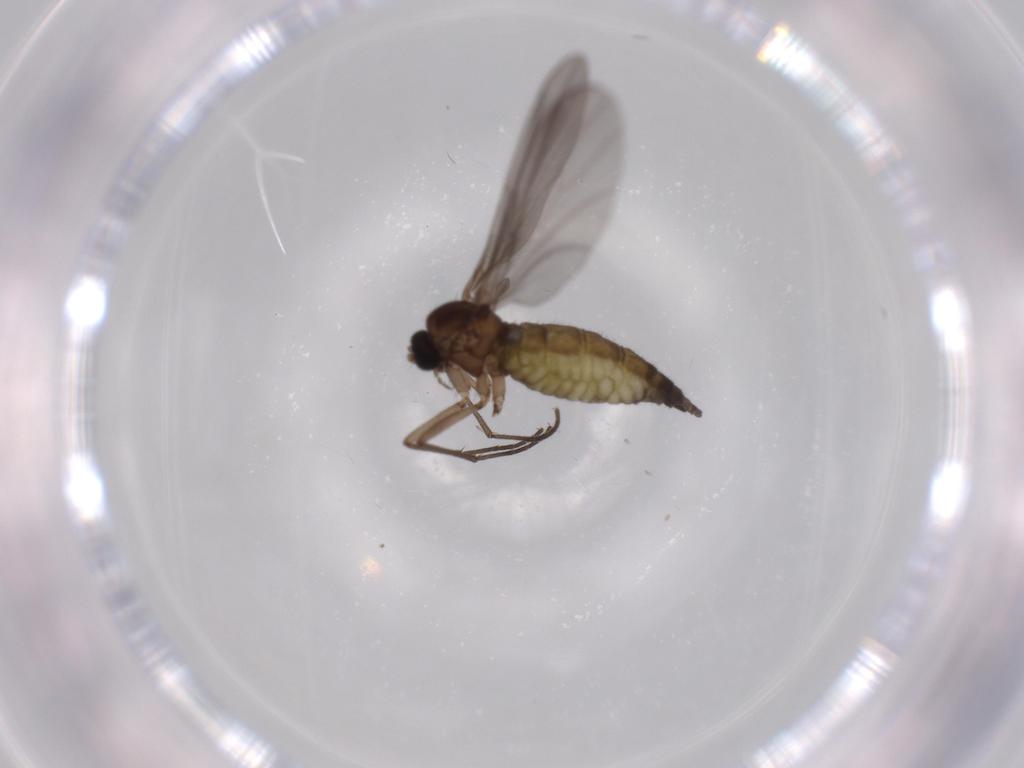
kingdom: Animalia
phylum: Arthropoda
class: Insecta
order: Diptera
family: Sciaridae
